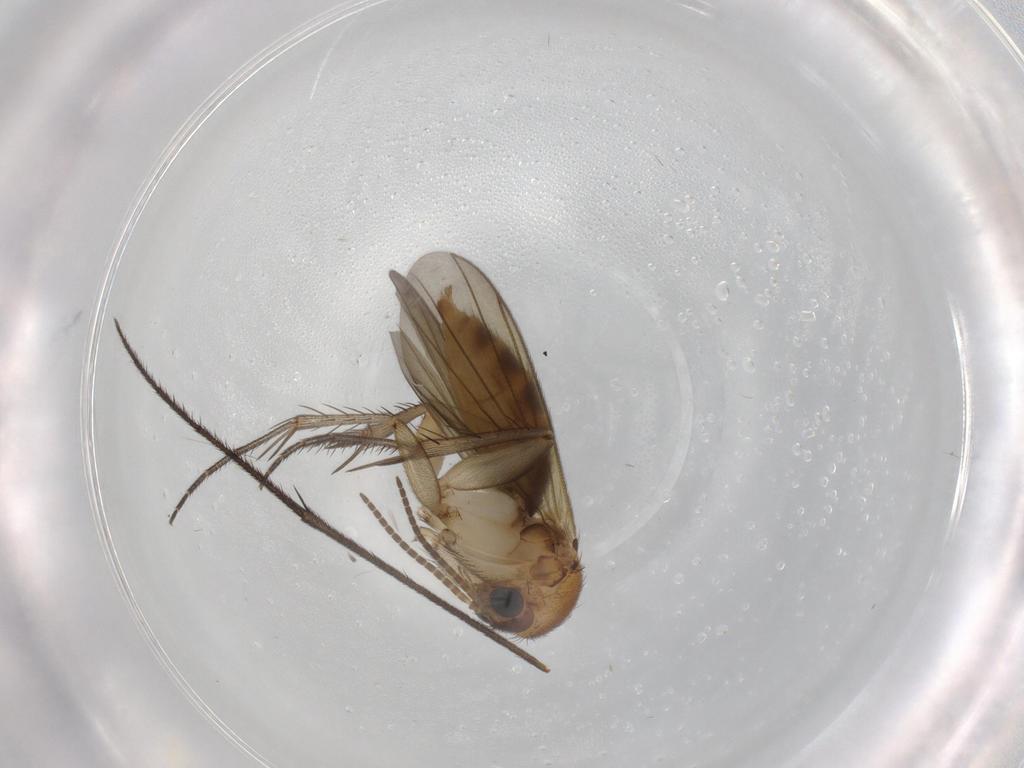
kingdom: Animalia
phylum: Arthropoda
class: Insecta
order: Diptera
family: Mycetophilidae
